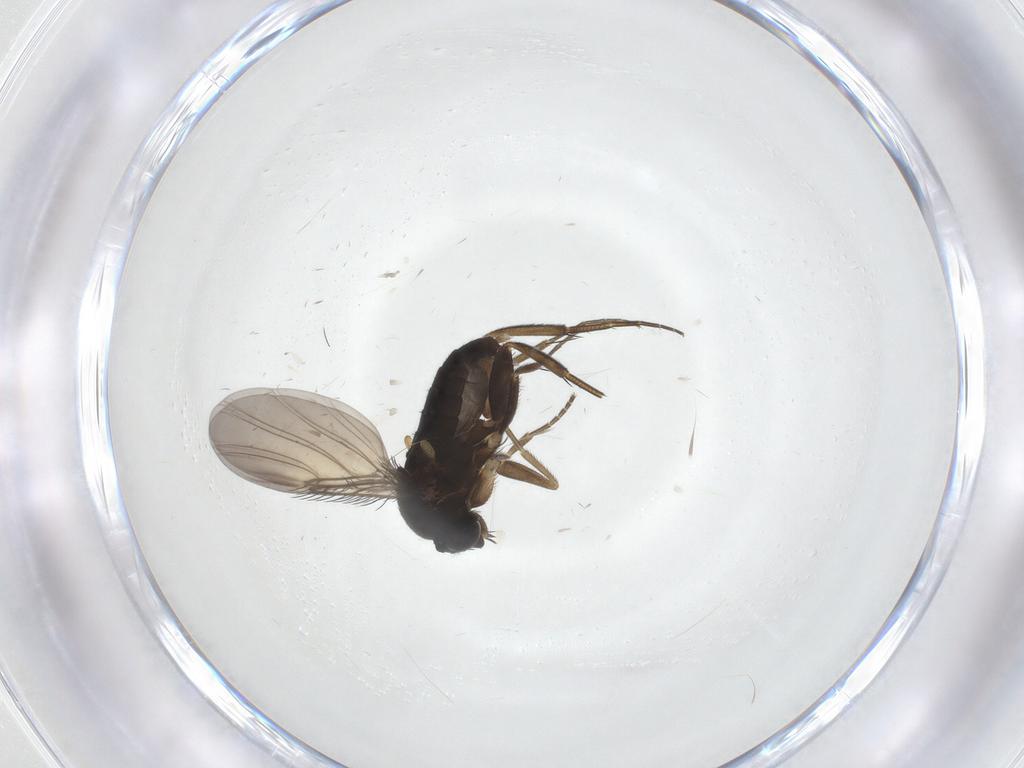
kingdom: Animalia
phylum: Arthropoda
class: Insecta
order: Diptera
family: Phoridae
